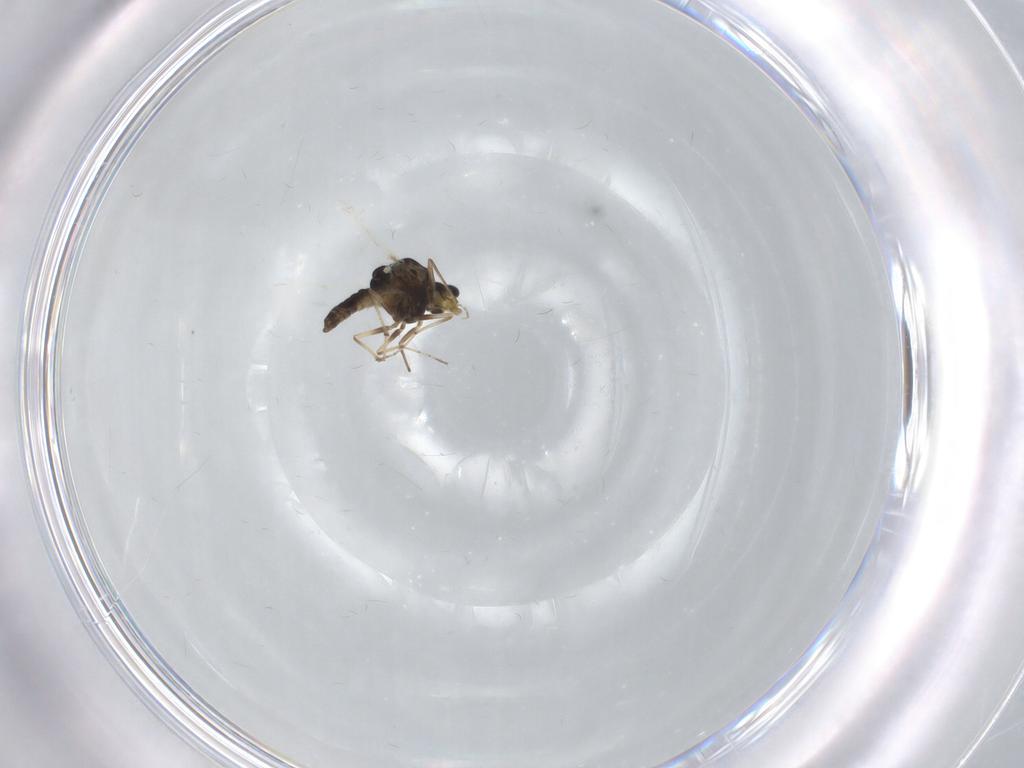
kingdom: Animalia
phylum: Arthropoda
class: Insecta
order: Diptera
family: Chironomidae
